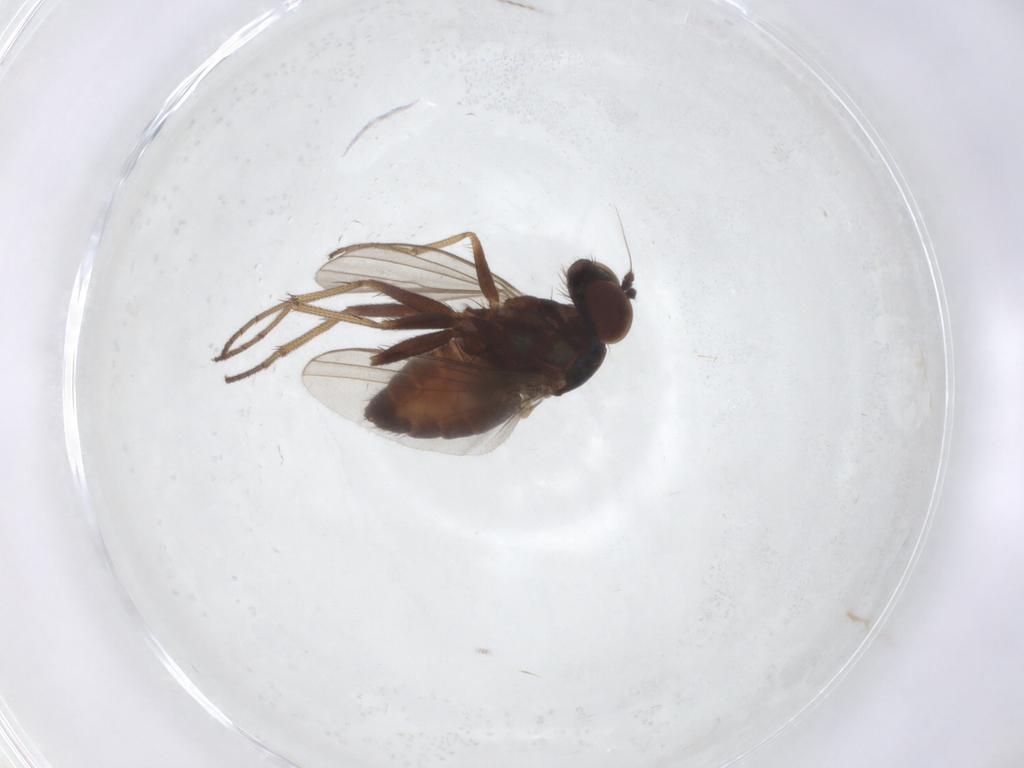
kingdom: Animalia
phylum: Arthropoda
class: Insecta
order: Diptera
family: Dolichopodidae
